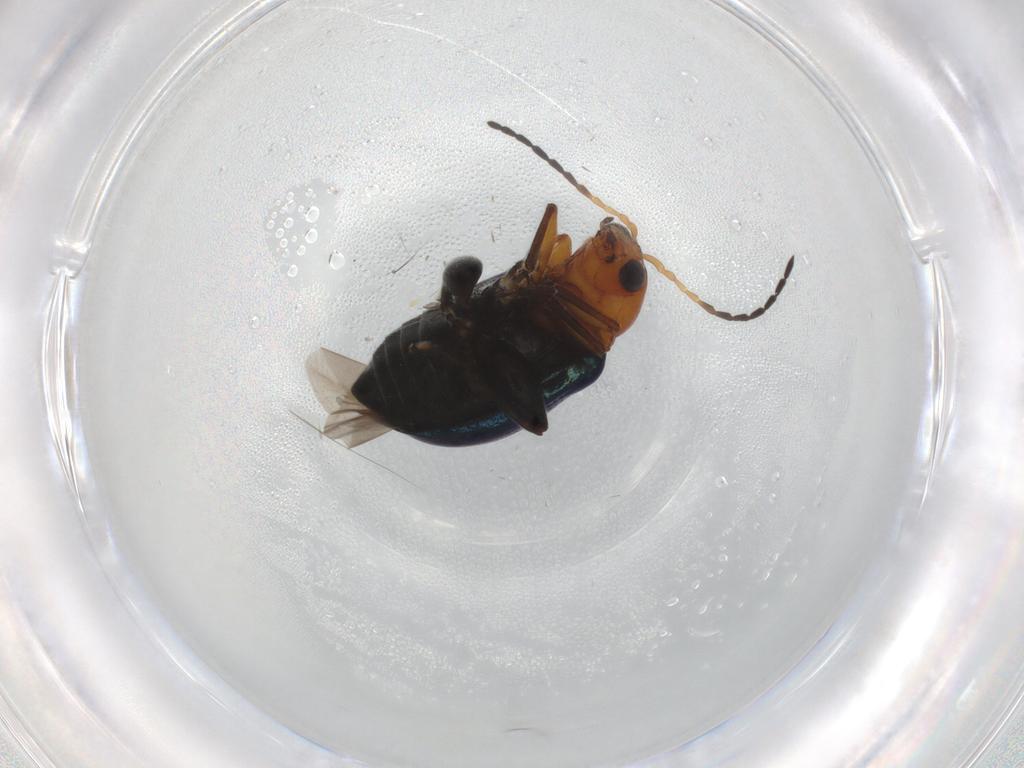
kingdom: Animalia
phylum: Arthropoda
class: Insecta
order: Coleoptera
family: Chrysomelidae
